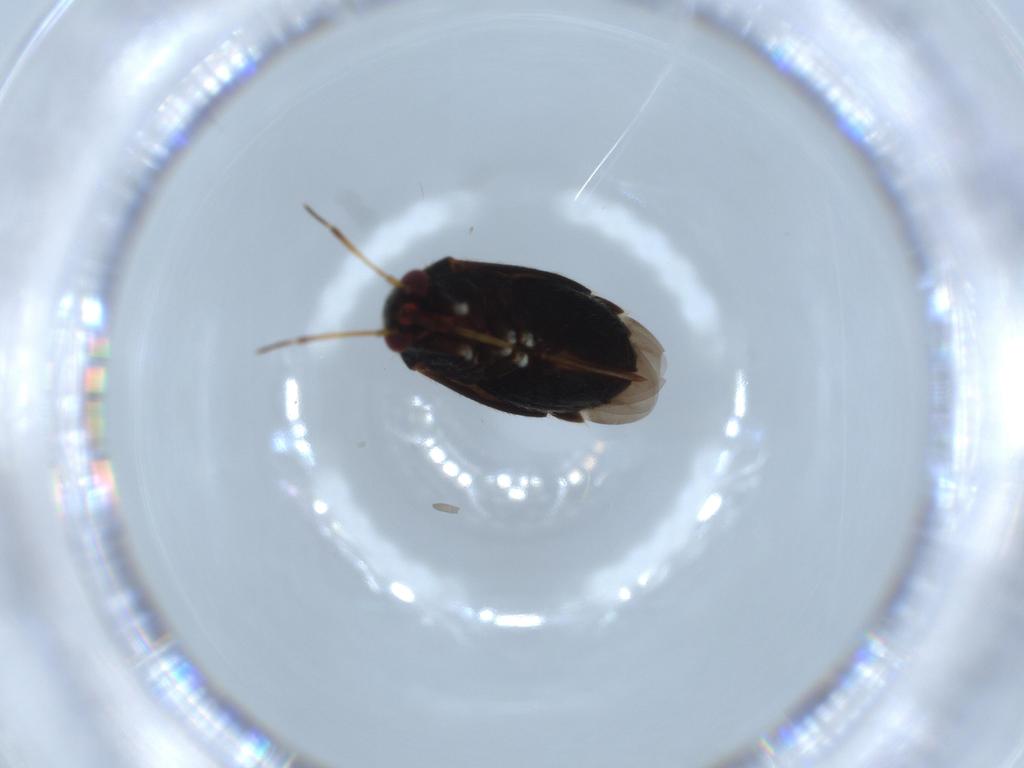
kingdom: Animalia
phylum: Arthropoda
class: Insecta
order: Hemiptera
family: Miridae
